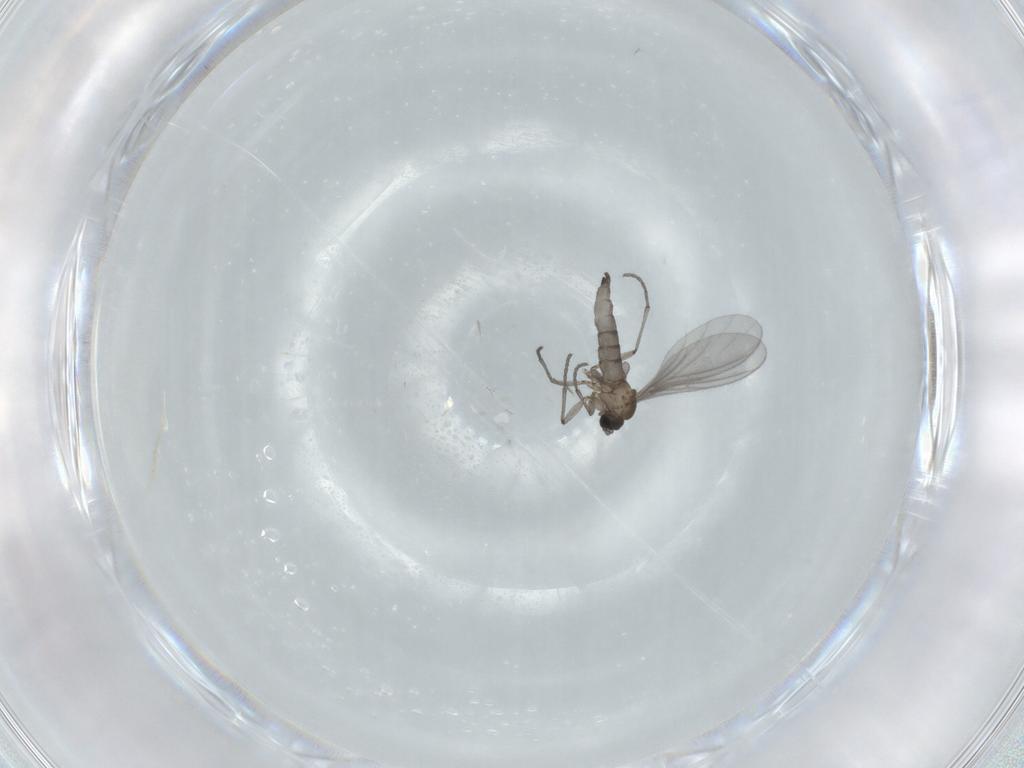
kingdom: Animalia
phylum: Arthropoda
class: Insecta
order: Diptera
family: Sciaridae
